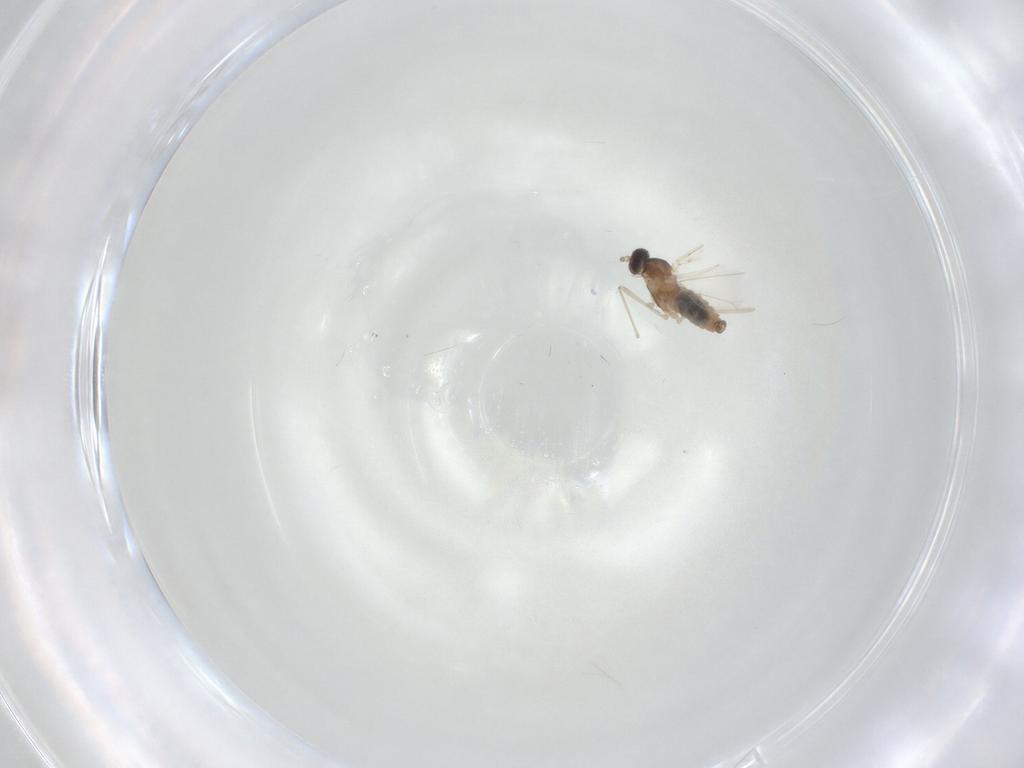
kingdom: Animalia
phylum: Arthropoda
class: Insecta
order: Diptera
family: Cecidomyiidae
